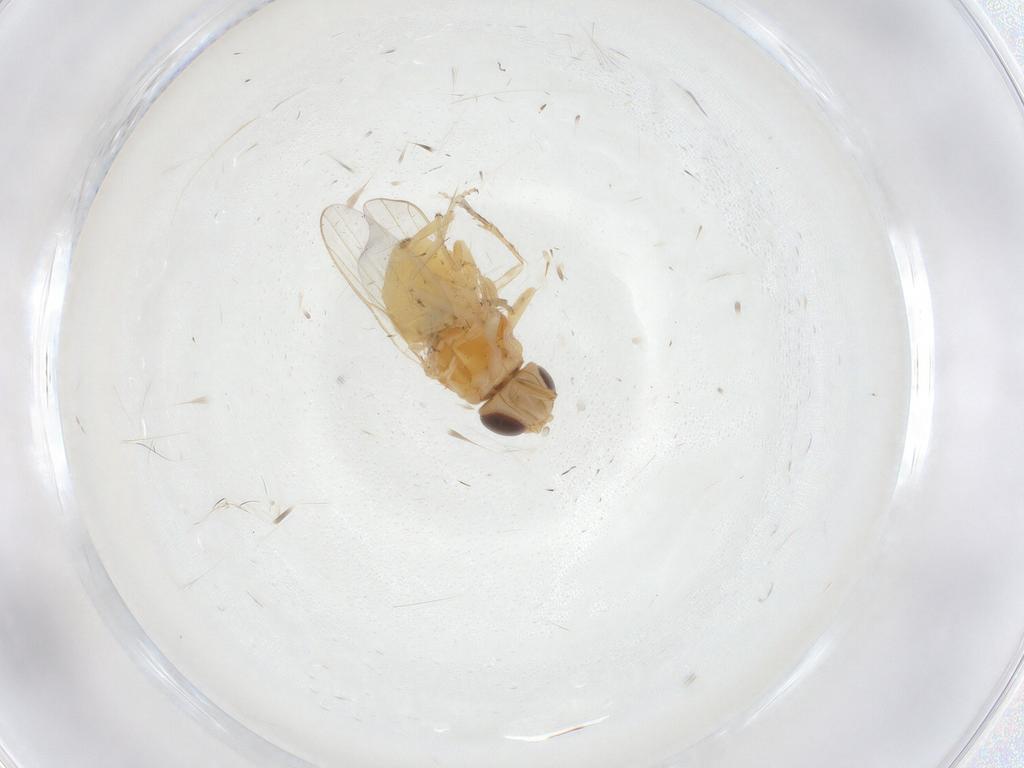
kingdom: Animalia
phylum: Arthropoda
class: Insecta
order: Diptera
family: Chloropidae
